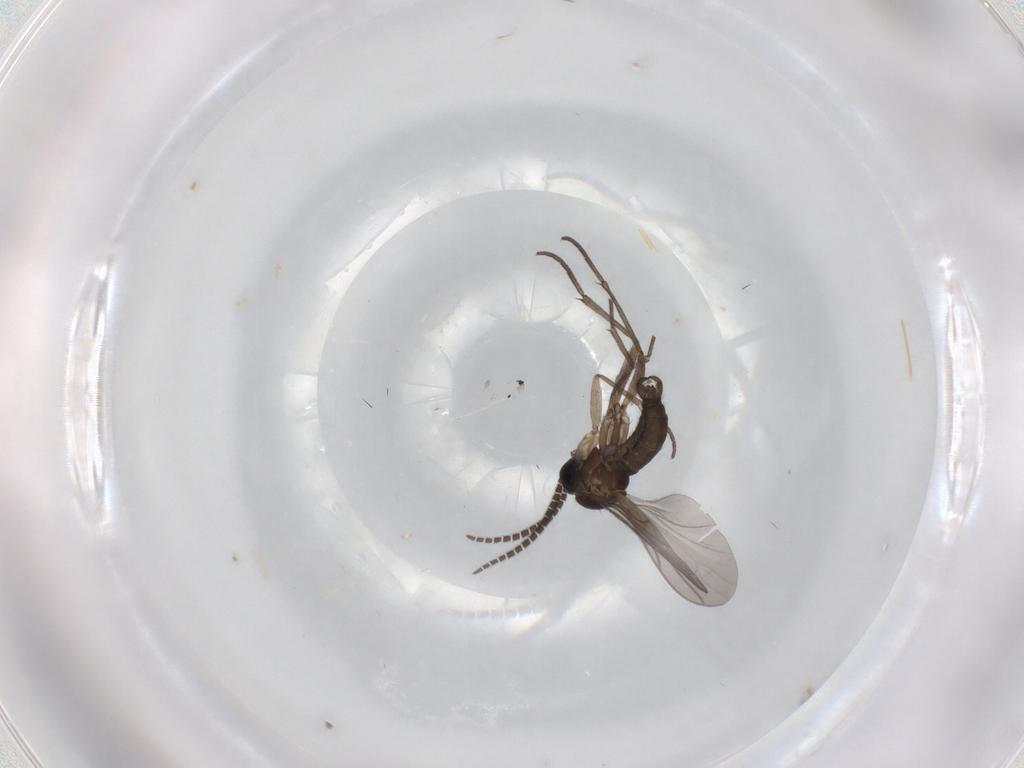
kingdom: Animalia
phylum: Arthropoda
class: Insecta
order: Diptera
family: Sciaridae
